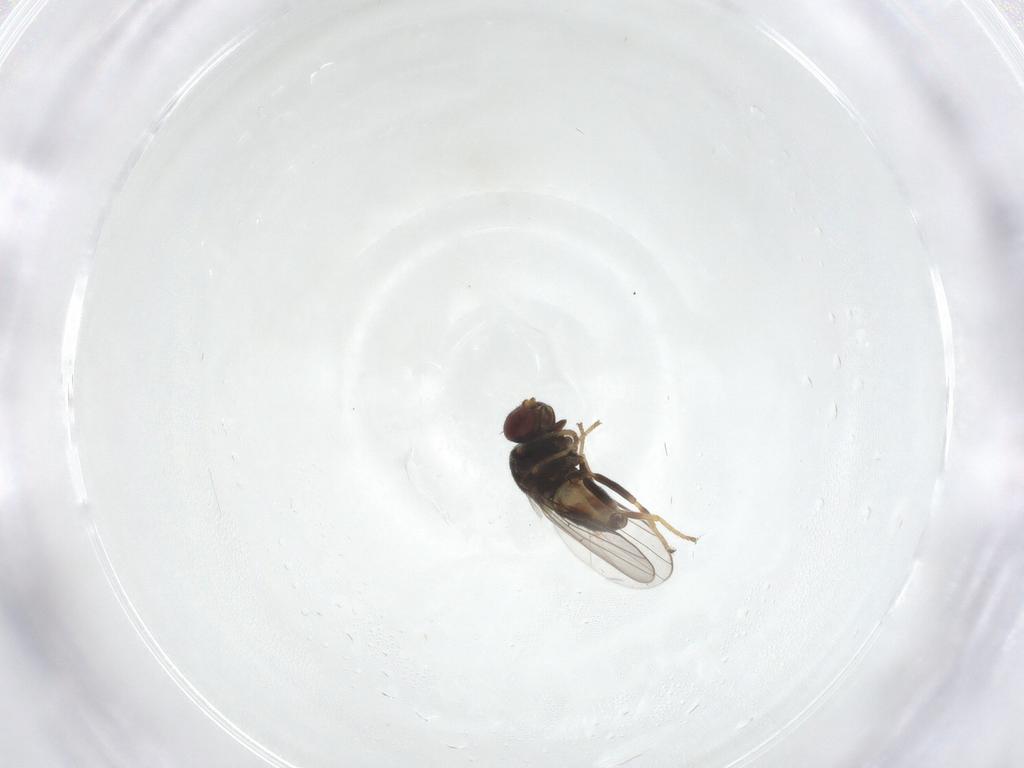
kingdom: Animalia
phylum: Arthropoda
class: Insecta
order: Diptera
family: Chloropidae
